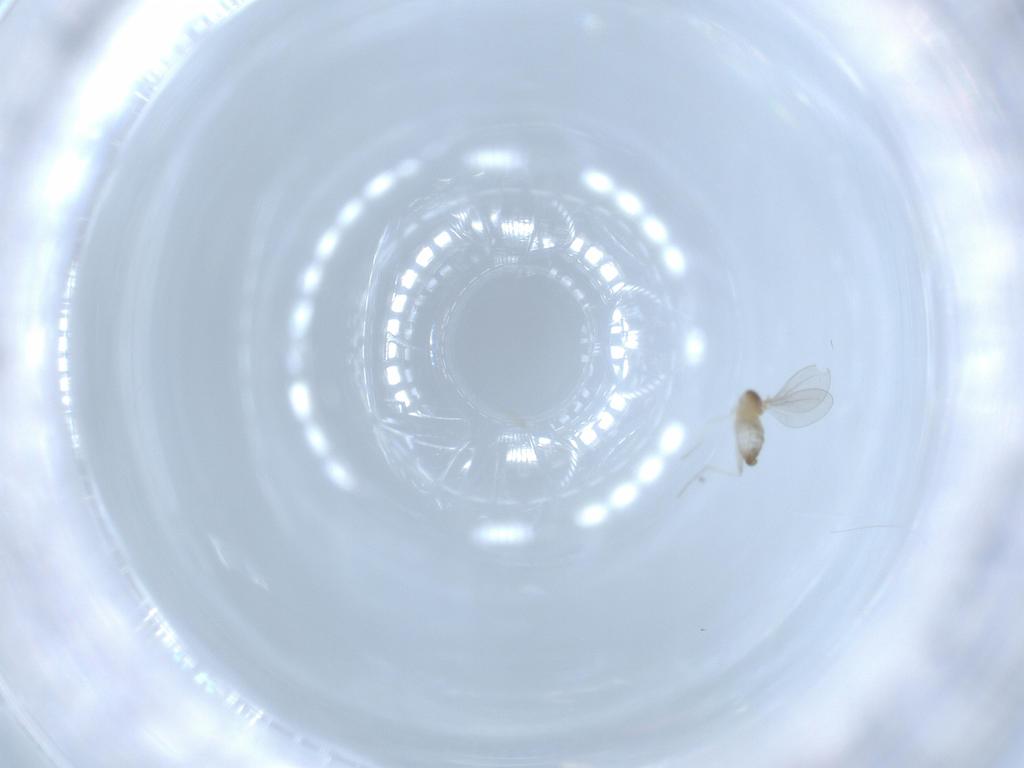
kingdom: Animalia
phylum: Arthropoda
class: Insecta
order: Diptera
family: Cecidomyiidae
